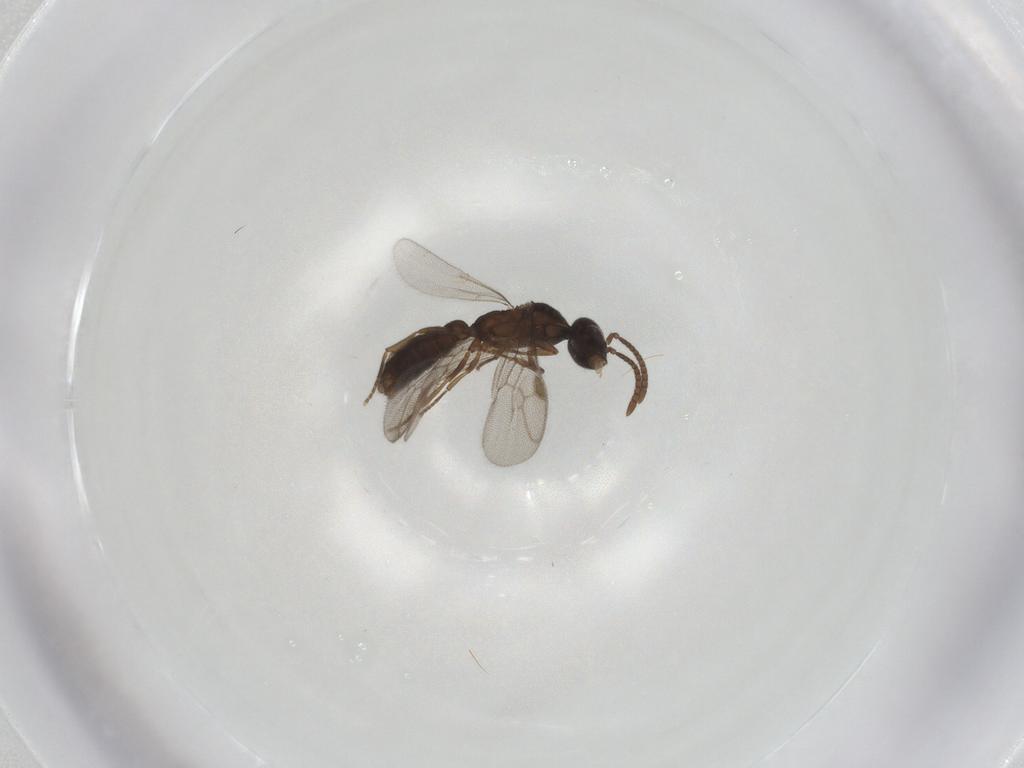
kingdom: Animalia
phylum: Arthropoda
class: Insecta
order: Hymenoptera
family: Formicidae
